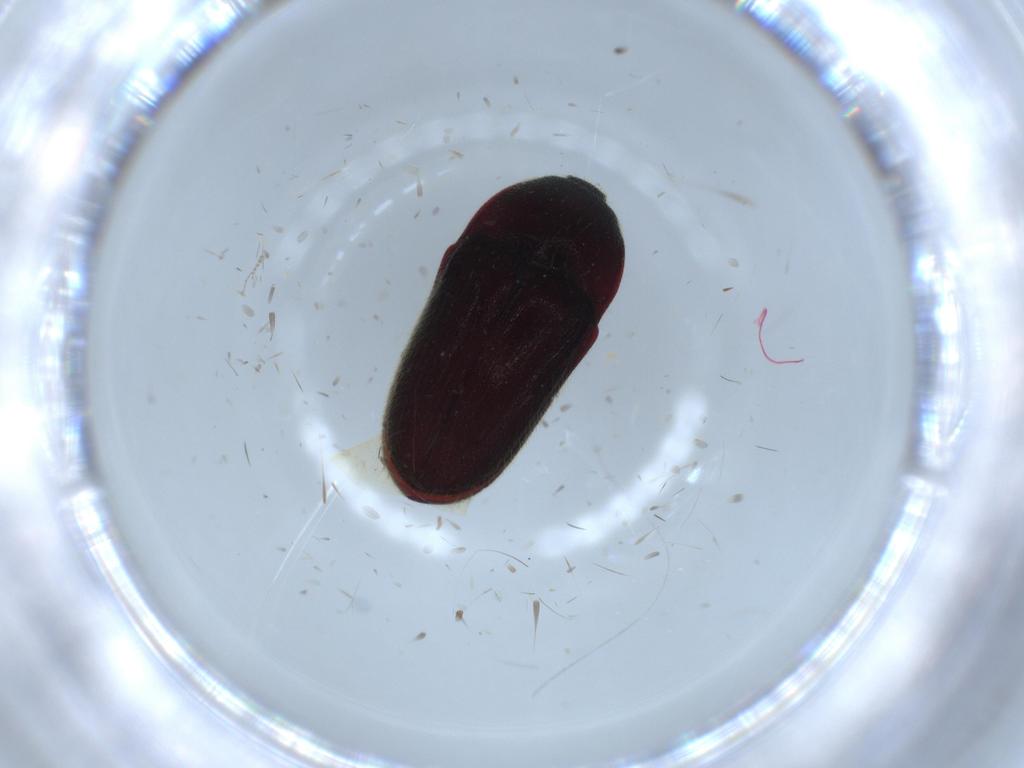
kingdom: Animalia
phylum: Arthropoda
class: Insecta
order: Coleoptera
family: Throscidae
